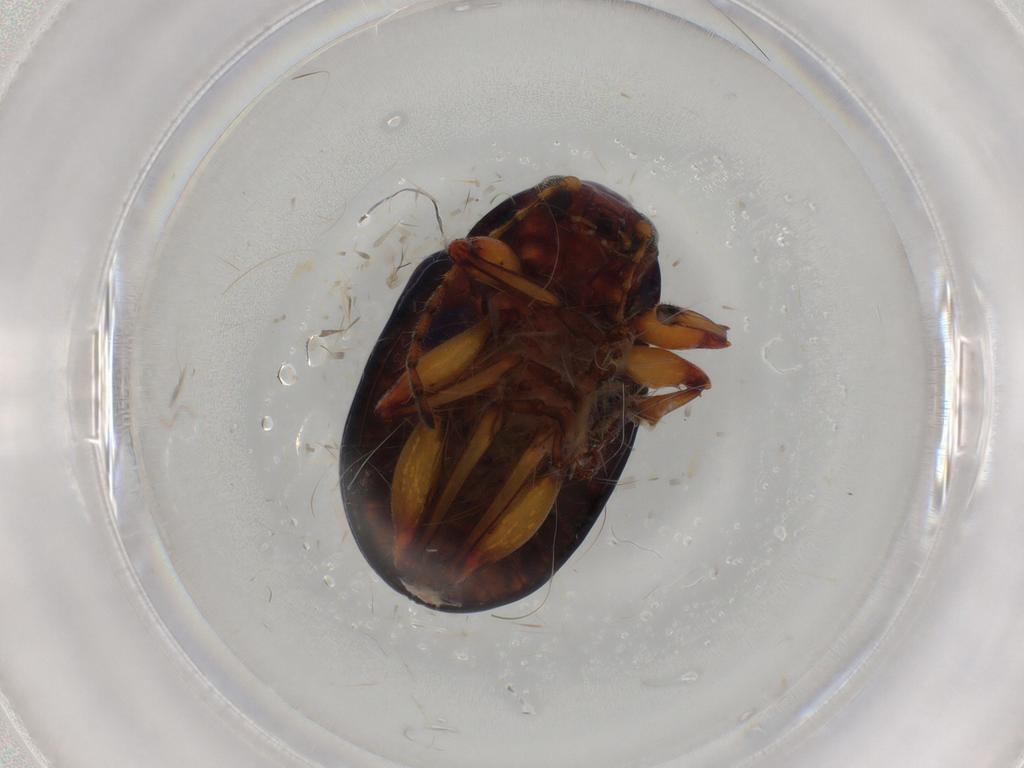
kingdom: Animalia
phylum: Arthropoda
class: Insecta
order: Coleoptera
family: Chrysomelidae
